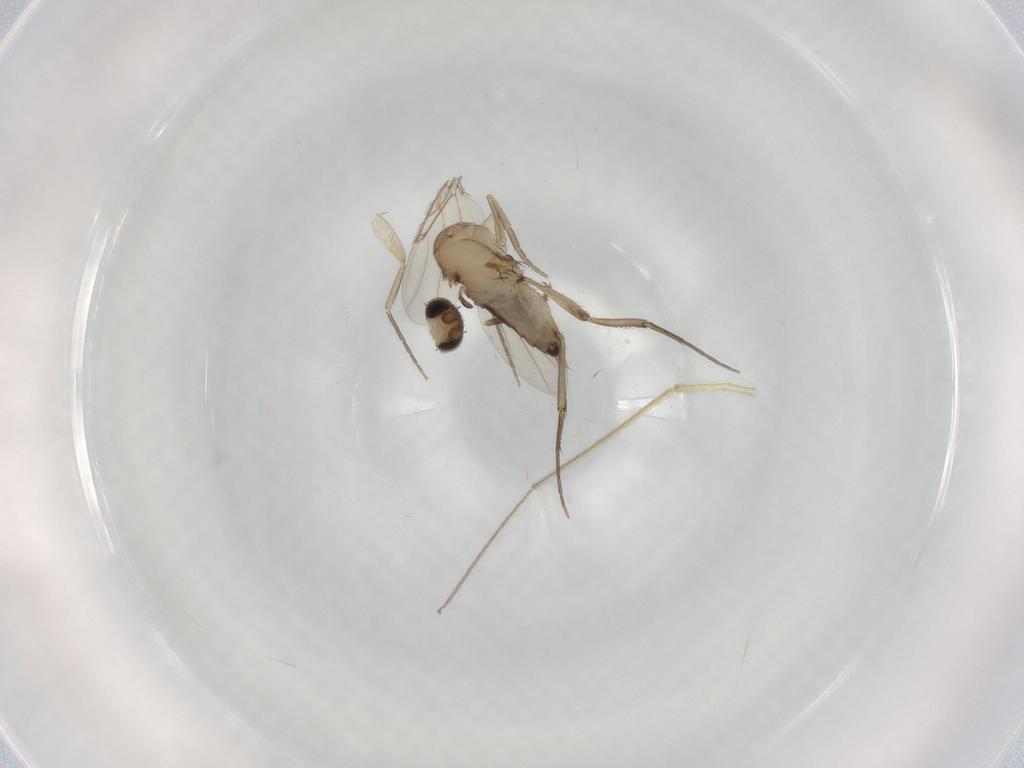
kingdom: Animalia
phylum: Arthropoda
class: Insecta
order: Diptera
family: Phoridae
